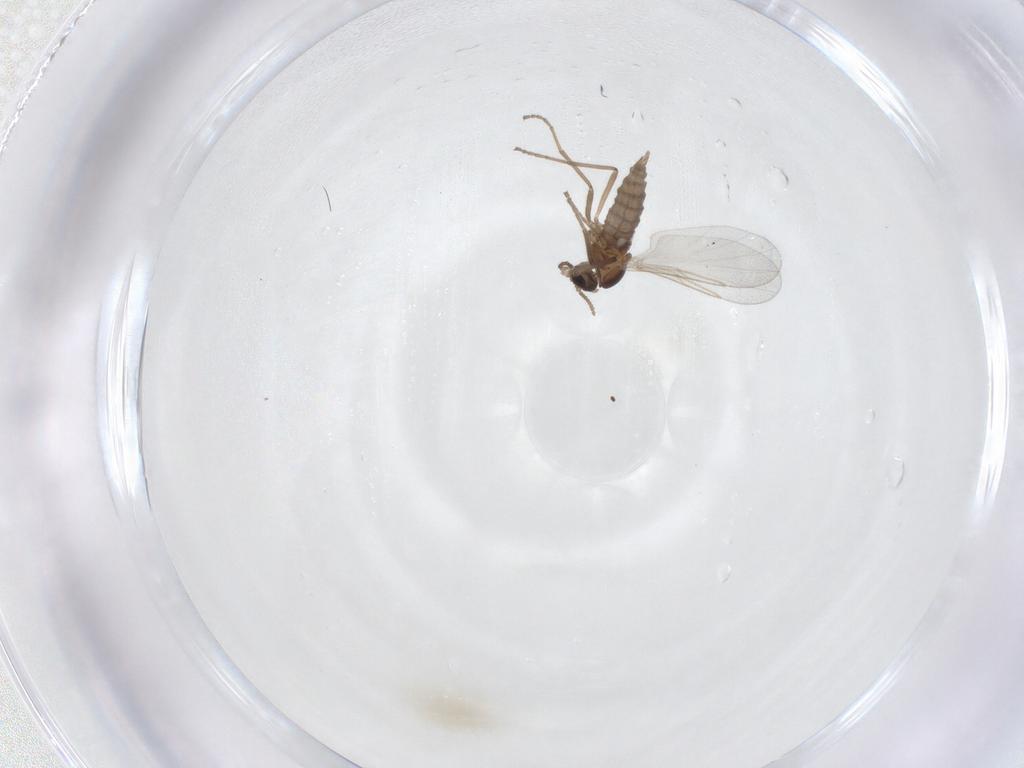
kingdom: Animalia
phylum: Arthropoda
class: Insecta
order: Diptera
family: Cecidomyiidae
